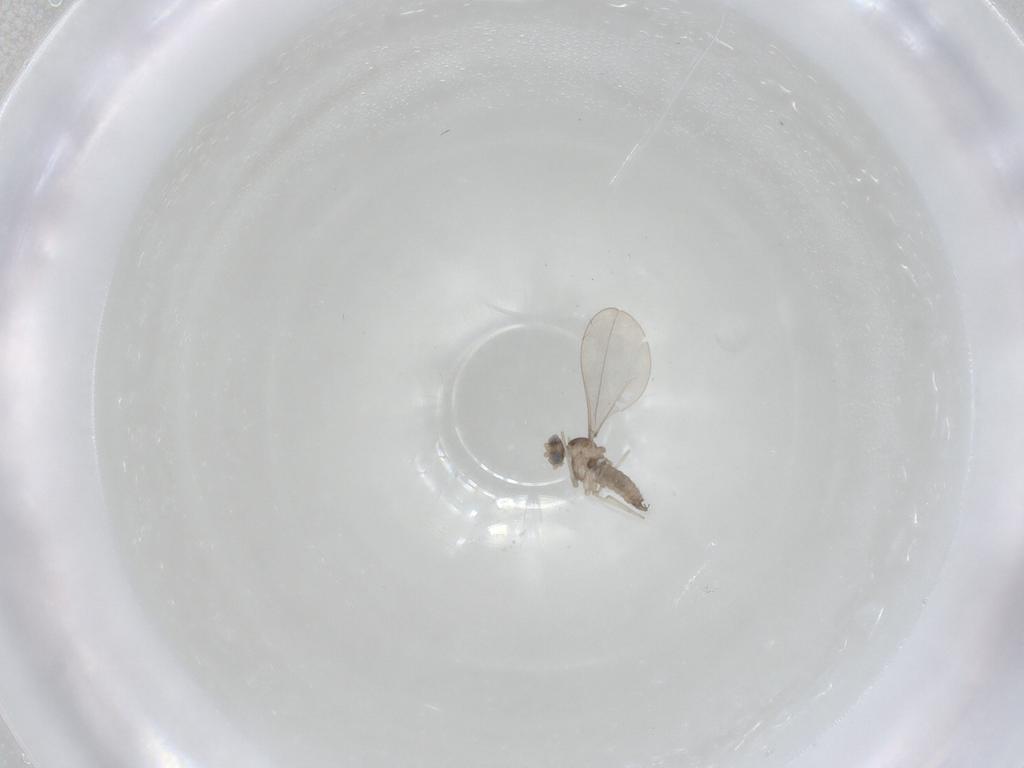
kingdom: Animalia
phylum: Arthropoda
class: Insecta
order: Diptera
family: Cecidomyiidae
